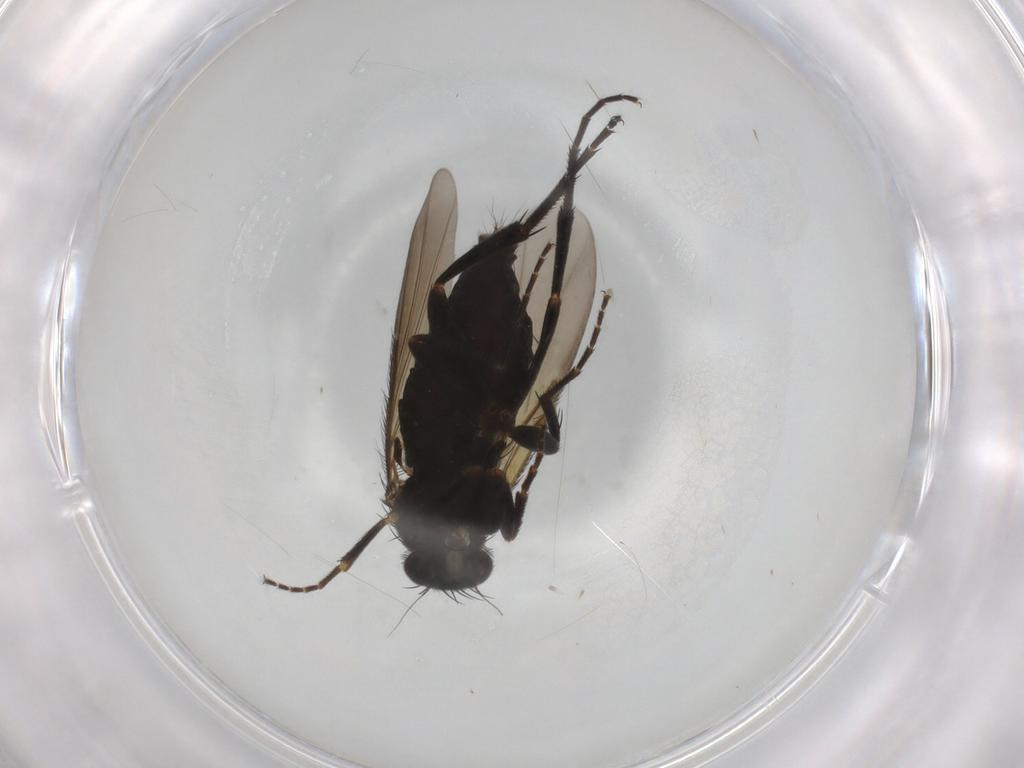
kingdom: Animalia
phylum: Arthropoda
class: Insecta
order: Diptera
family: Phoridae
